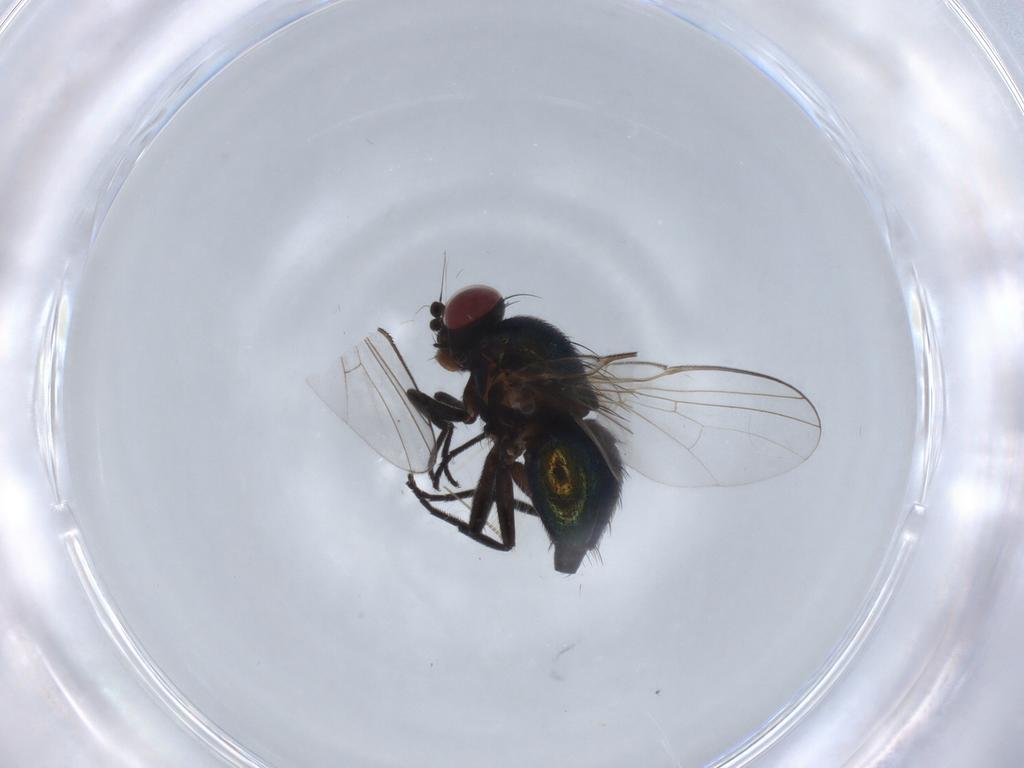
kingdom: Animalia
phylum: Arthropoda
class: Insecta
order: Diptera
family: Agromyzidae
